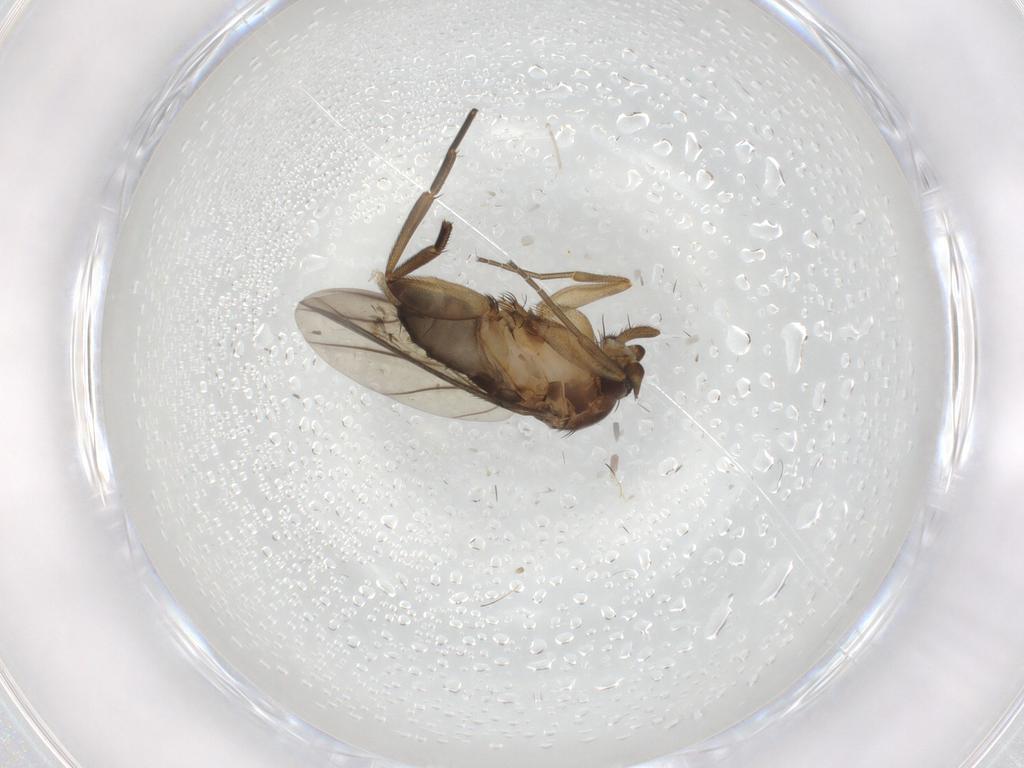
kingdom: Animalia
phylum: Arthropoda
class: Insecta
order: Diptera
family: Phoridae
